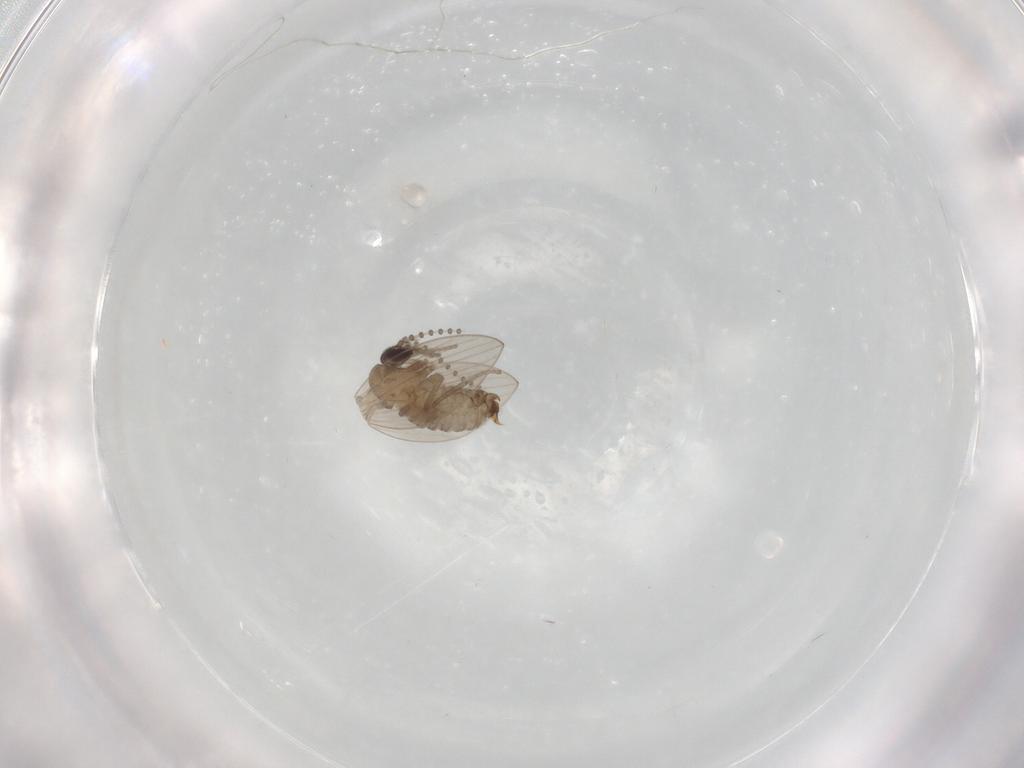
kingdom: Animalia
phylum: Arthropoda
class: Insecta
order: Diptera
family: Psychodidae
